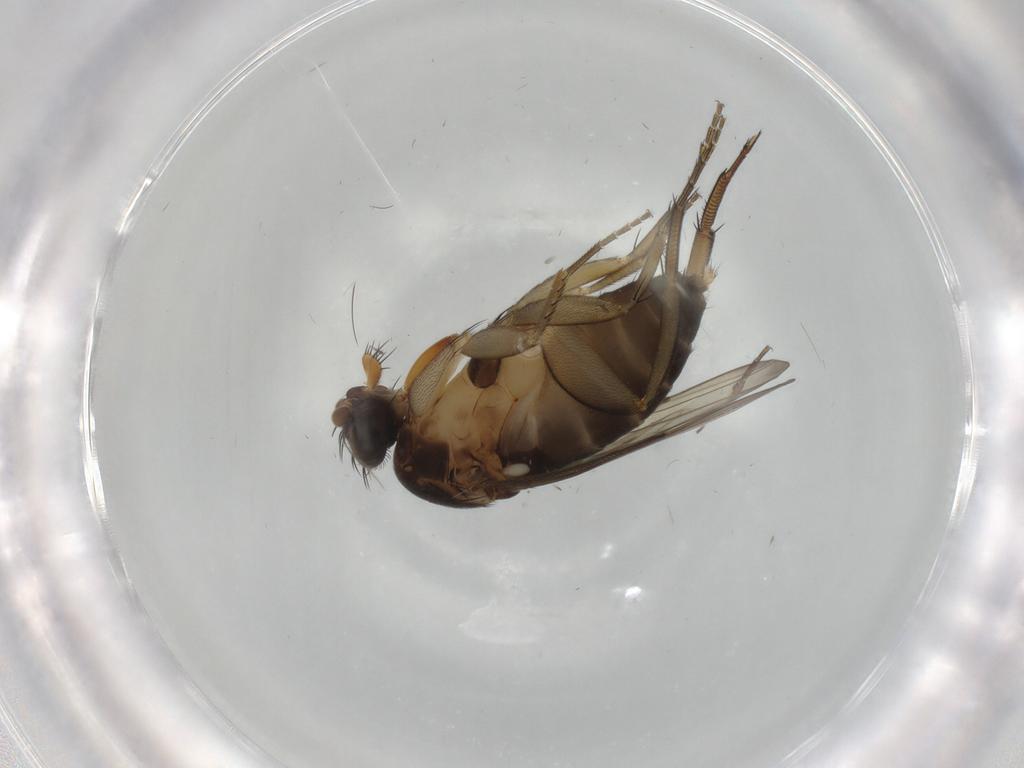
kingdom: Animalia
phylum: Arthropoda
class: Insecta
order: Diptera
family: Phoridae
